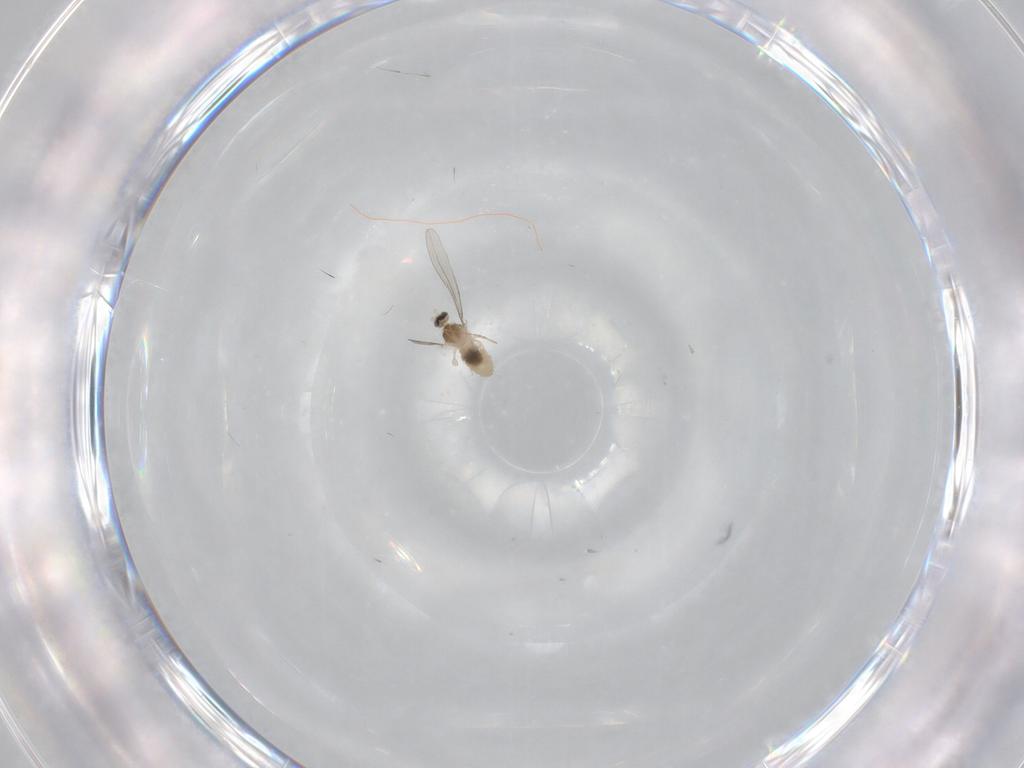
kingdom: Animalia
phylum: Arthropoda
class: Insecta
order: Diptera
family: Cecidomyiidae
